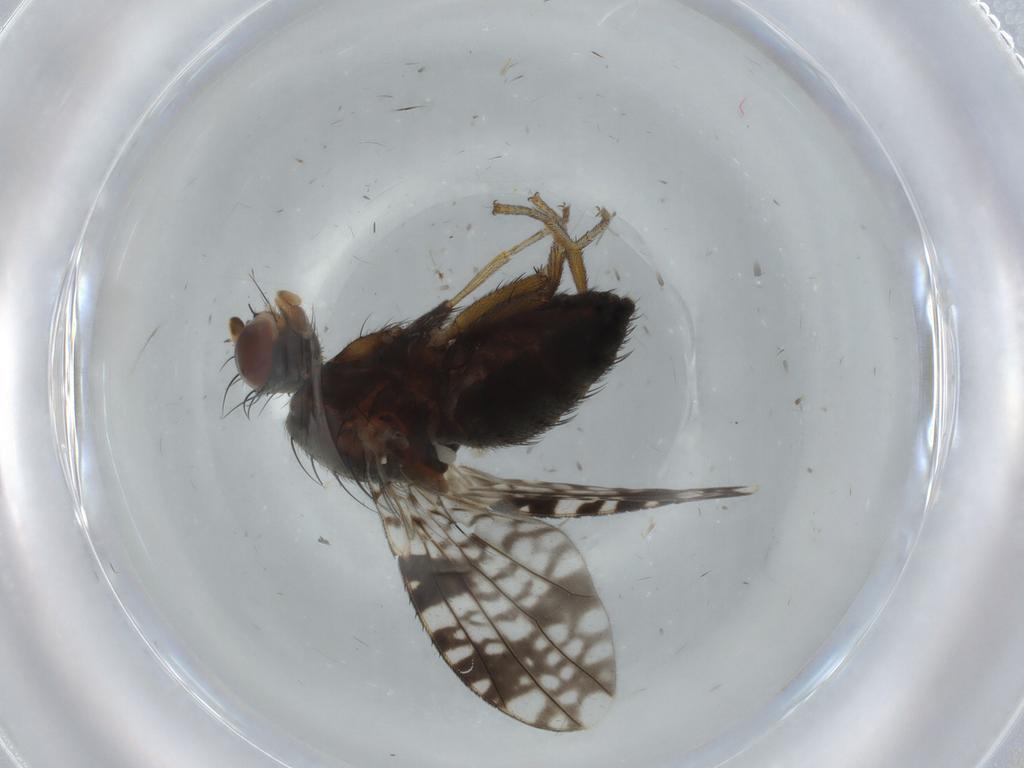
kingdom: Animalia
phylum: Arthropoda
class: Insecta
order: Diptera
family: Tephritidae
